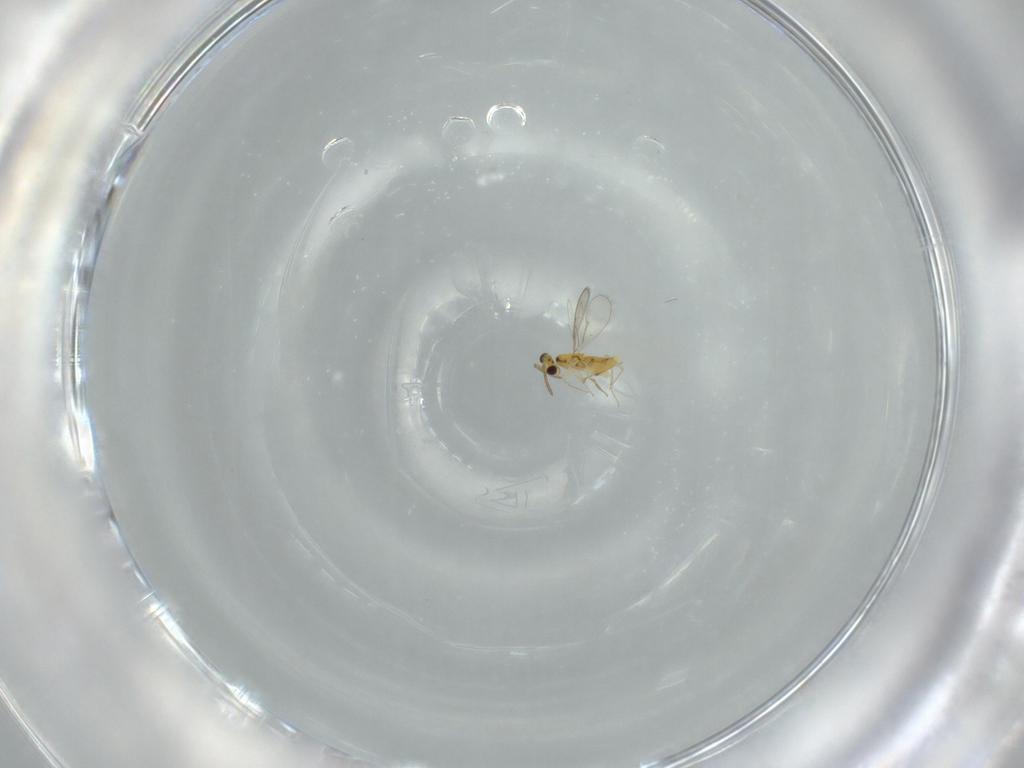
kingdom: Animalia
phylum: Arthropoda
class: Insecta
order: Hymenoptera
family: Aphelinidae
